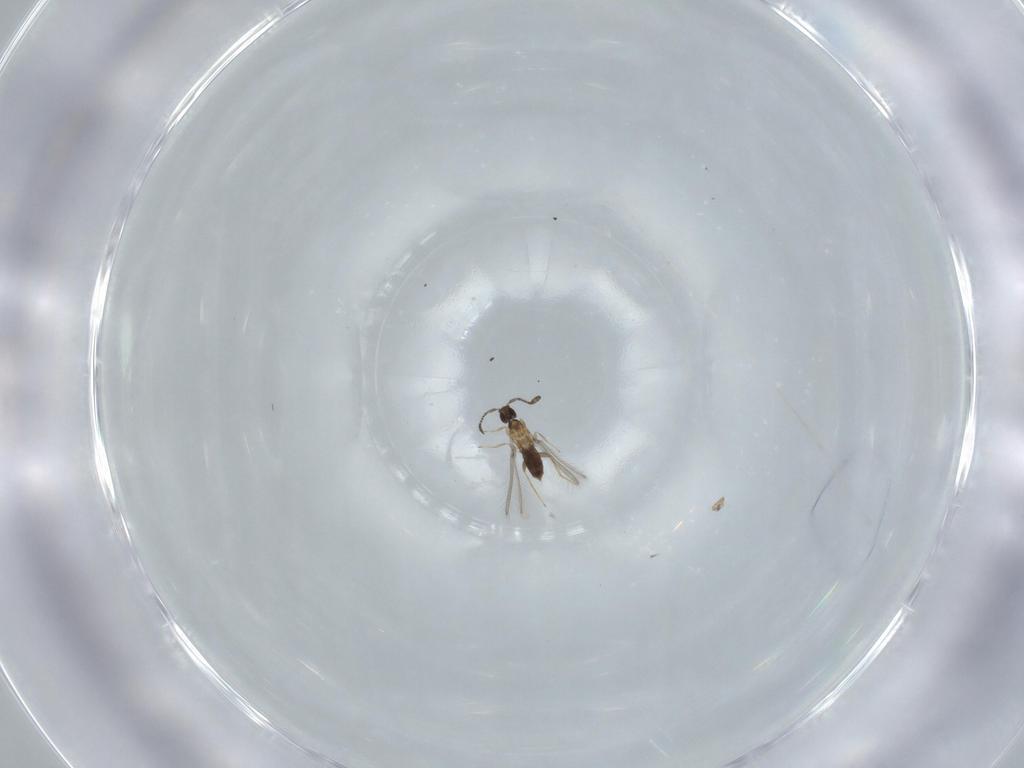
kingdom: Animalia
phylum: Arthropoda
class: Insecta
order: Hymenoptera
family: Mymaridae
